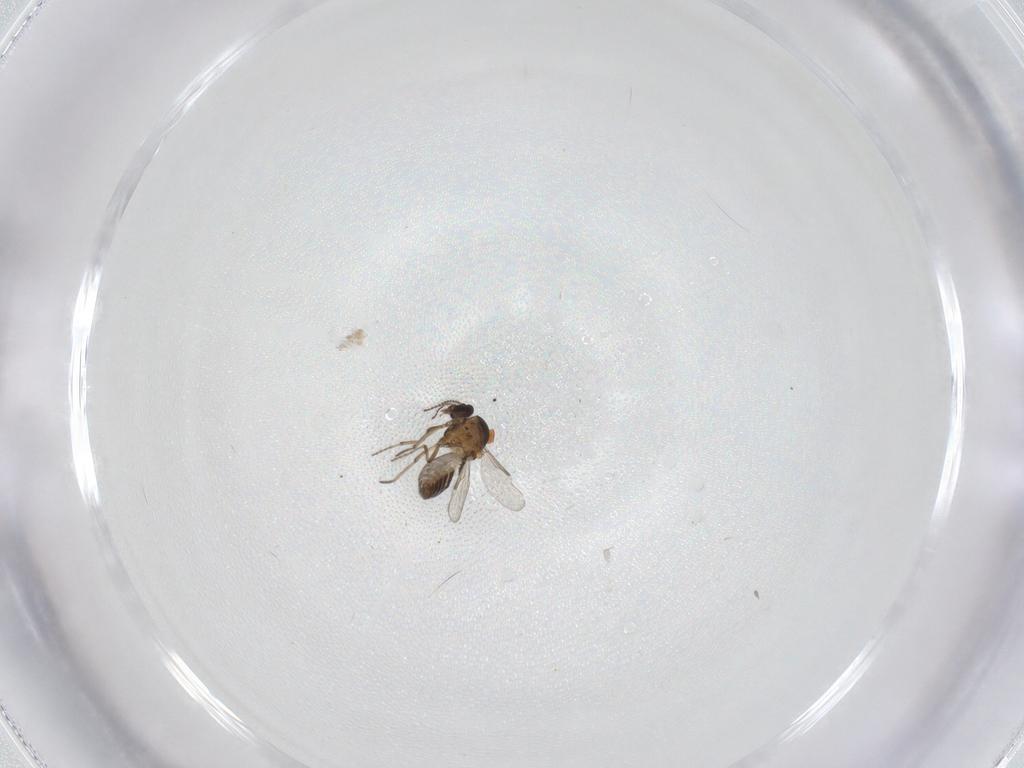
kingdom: Animalia
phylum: Arthropoda
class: Insecta
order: Diptera
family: Ceratopogonidae
